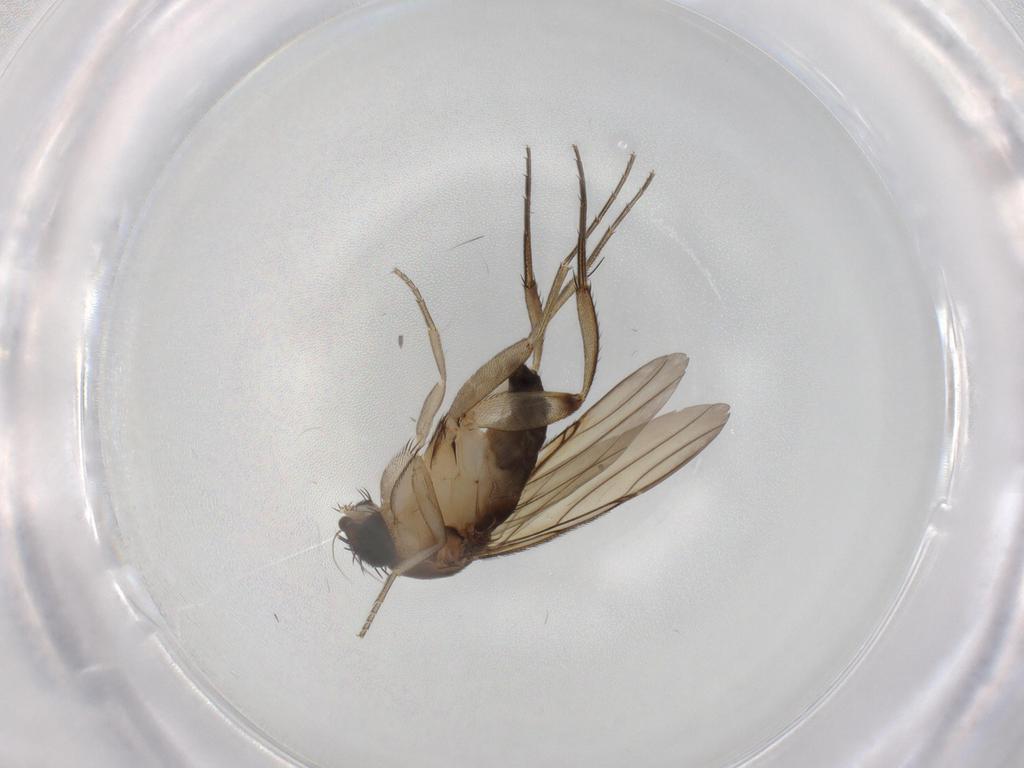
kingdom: Animalia
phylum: Arthropoda
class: Insecta
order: Diptera
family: Phoridae
